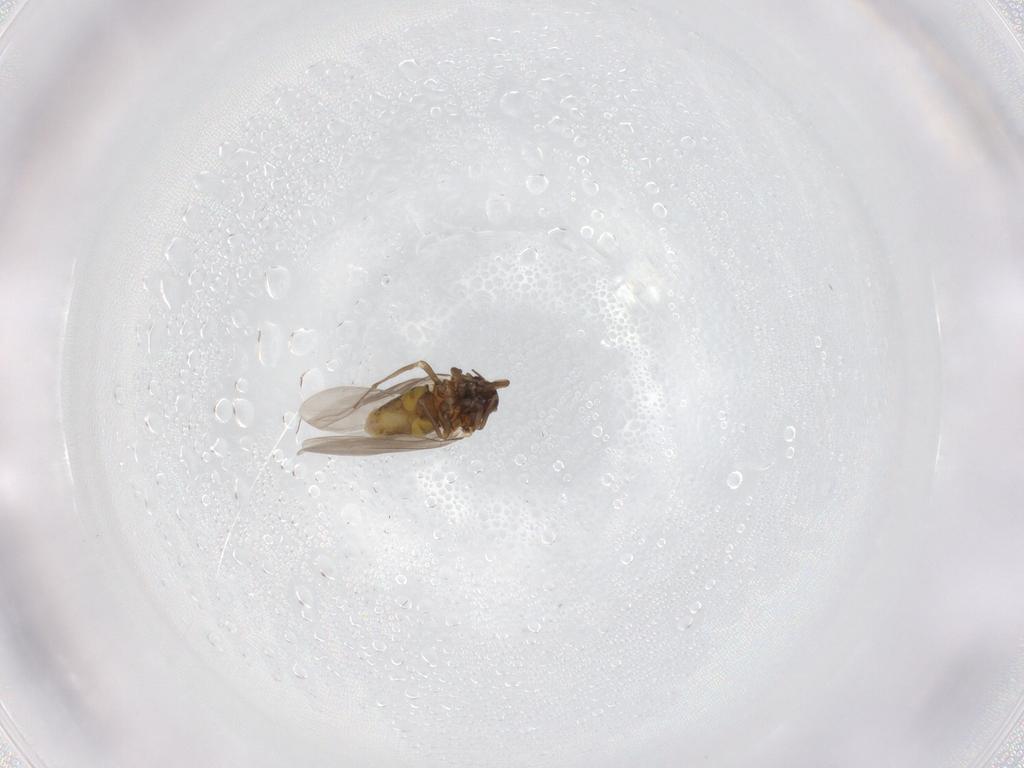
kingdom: Animalia
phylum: Arthropoda
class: Insecta
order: Hemiptera
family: Aleyrodidae
